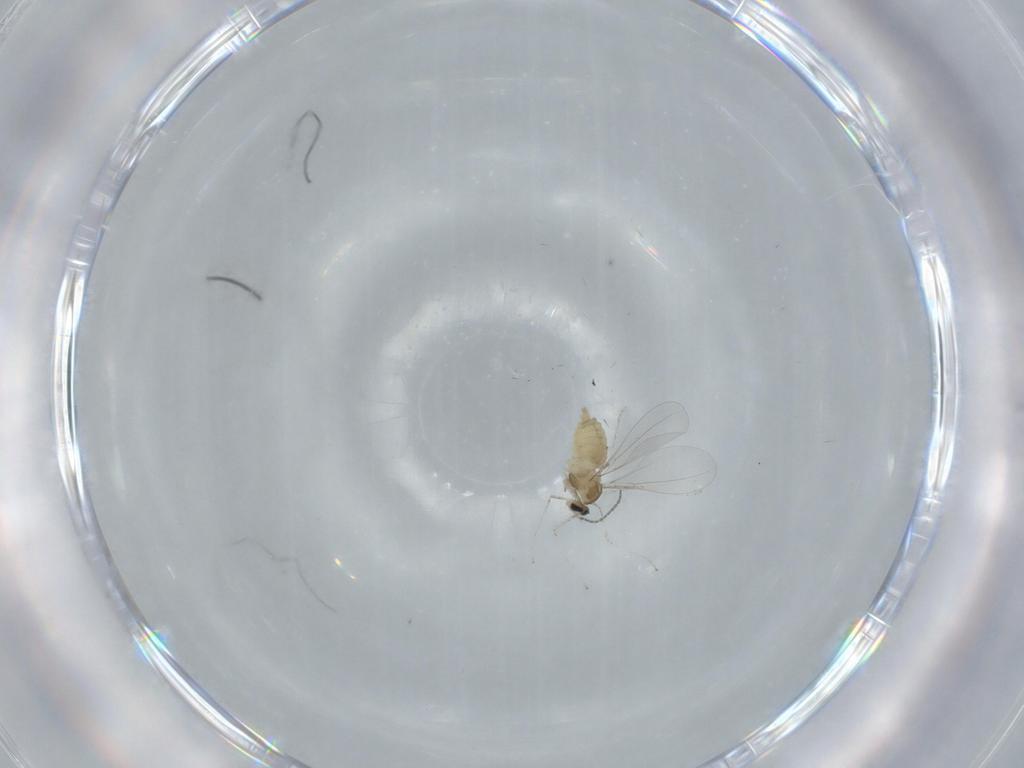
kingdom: Animalia
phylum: Arthropoda
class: Insecta
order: Diptera
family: Cecidomyiidae
